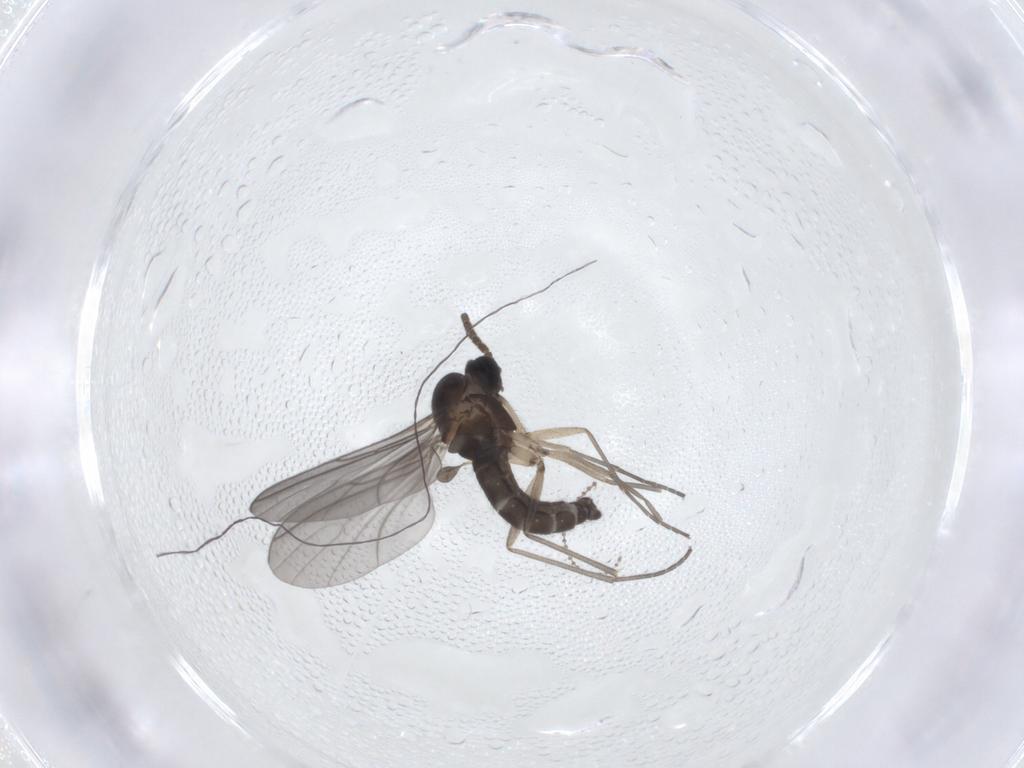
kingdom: Animalia
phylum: Arthropoda
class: Insecta
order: Diptera
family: Sciaridae
